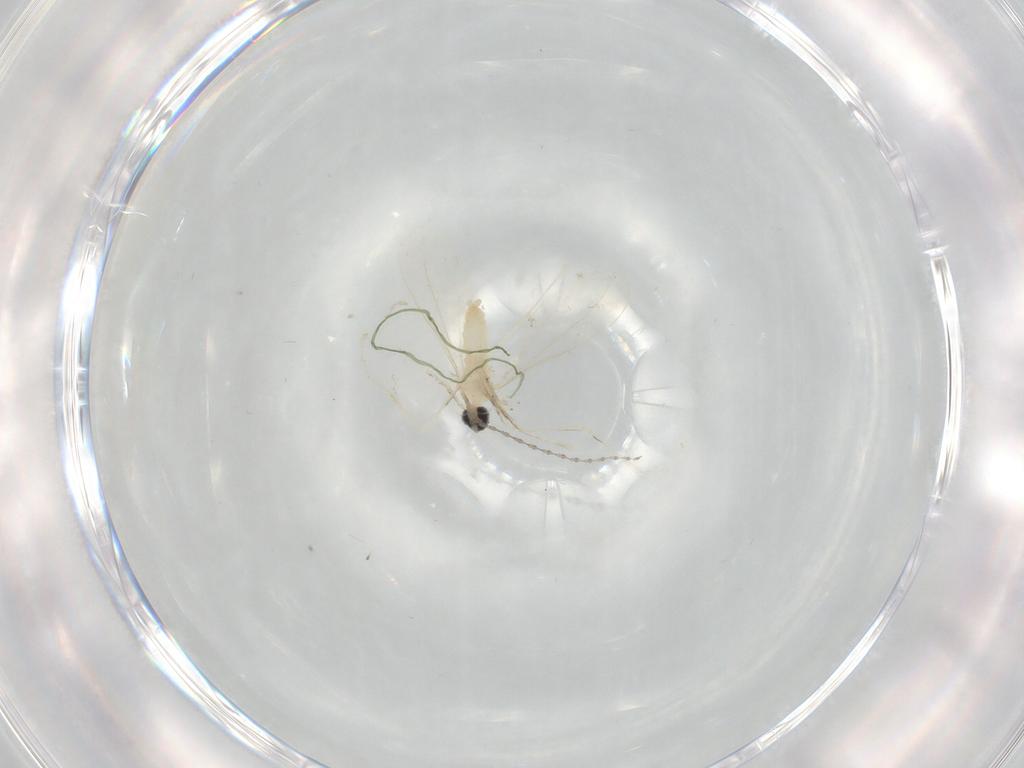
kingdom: Animalia
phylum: Arthropoda
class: Insecta
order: Diptera
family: Cecidomyiidae
